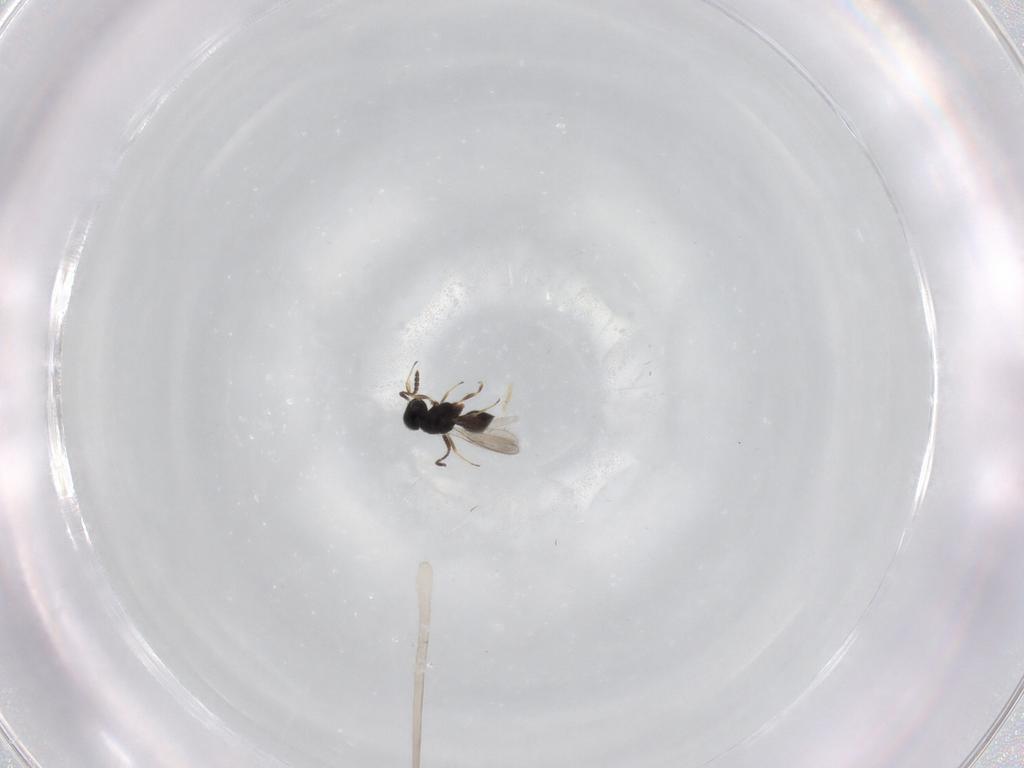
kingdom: Animalia
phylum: Arthropoda
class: Insecta
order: Hymenoptera
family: Scelionidae
